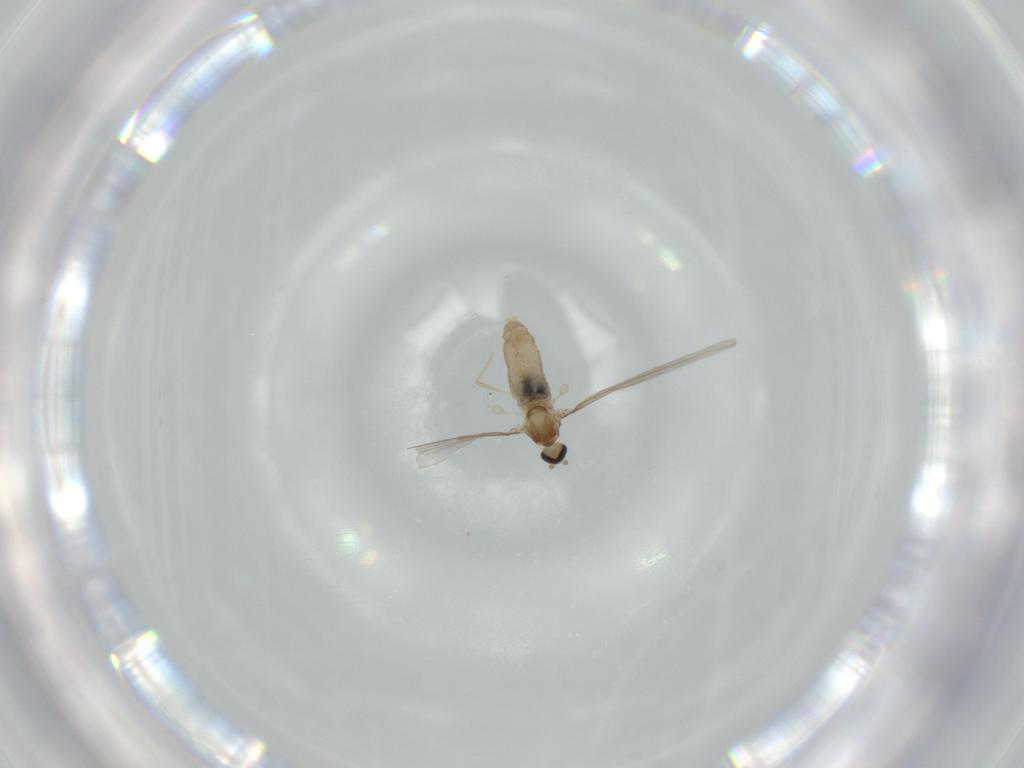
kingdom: Animalia
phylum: Arthropoda
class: Insecta
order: Diptera
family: Cecidomyiidae
